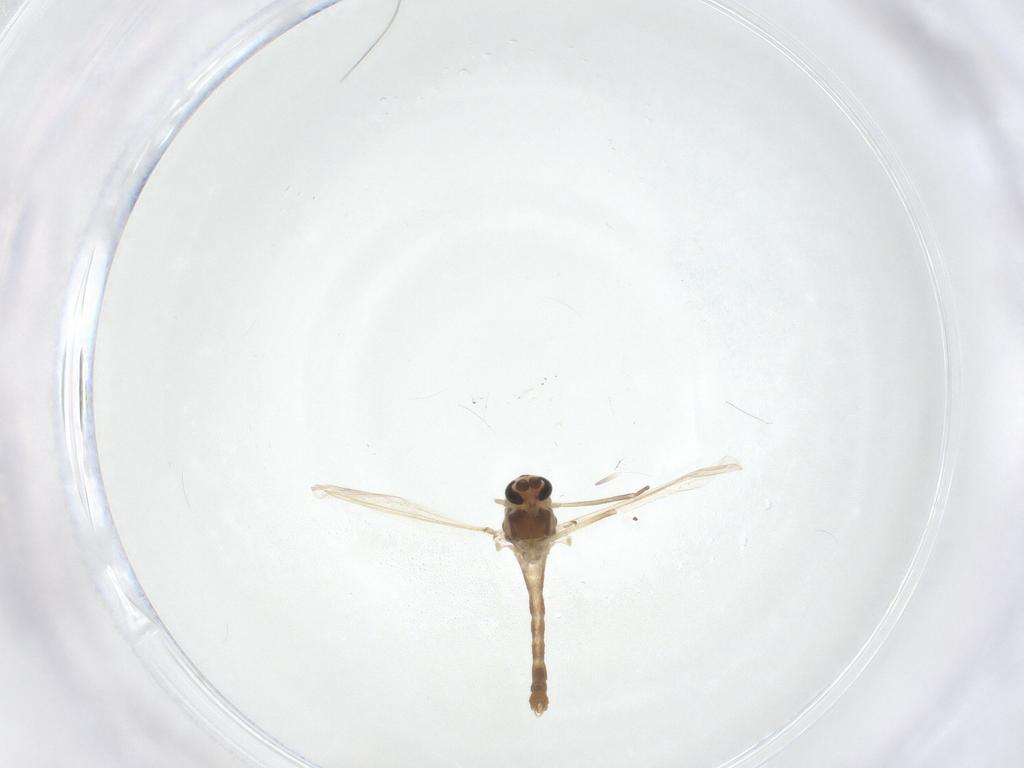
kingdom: Animalia
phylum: Arthropoda
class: Insecta
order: Diptera
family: Chironomidae
